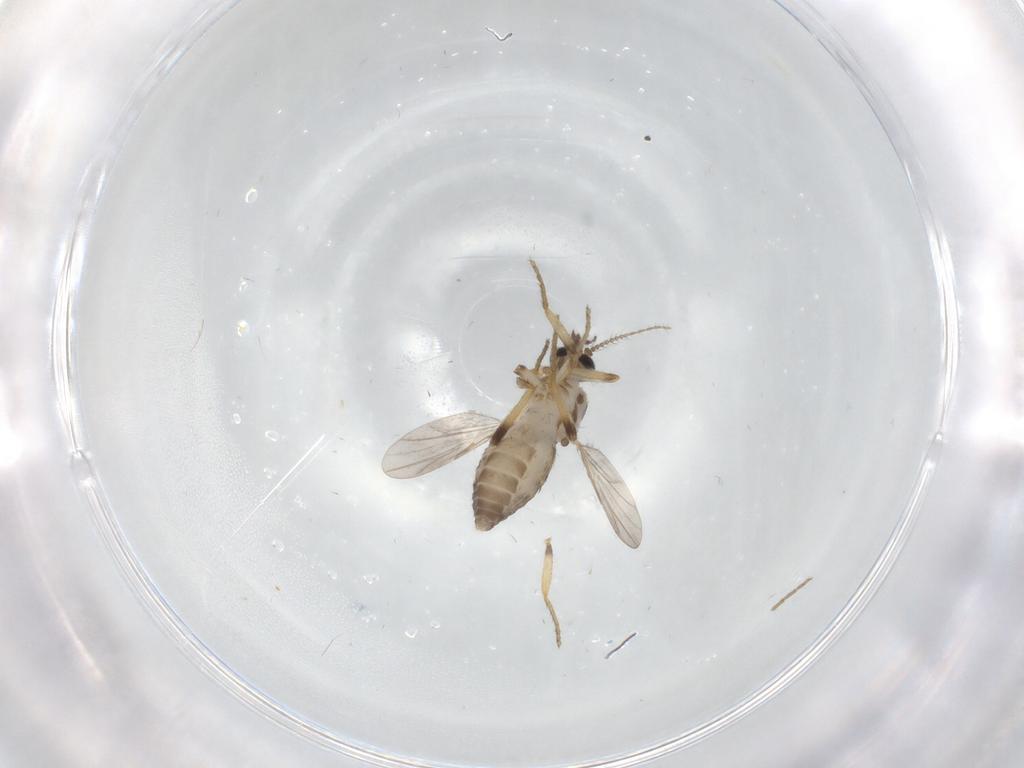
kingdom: Animalia
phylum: Arthropoda
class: Insecta
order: Diptera
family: Ceratopogonidae
